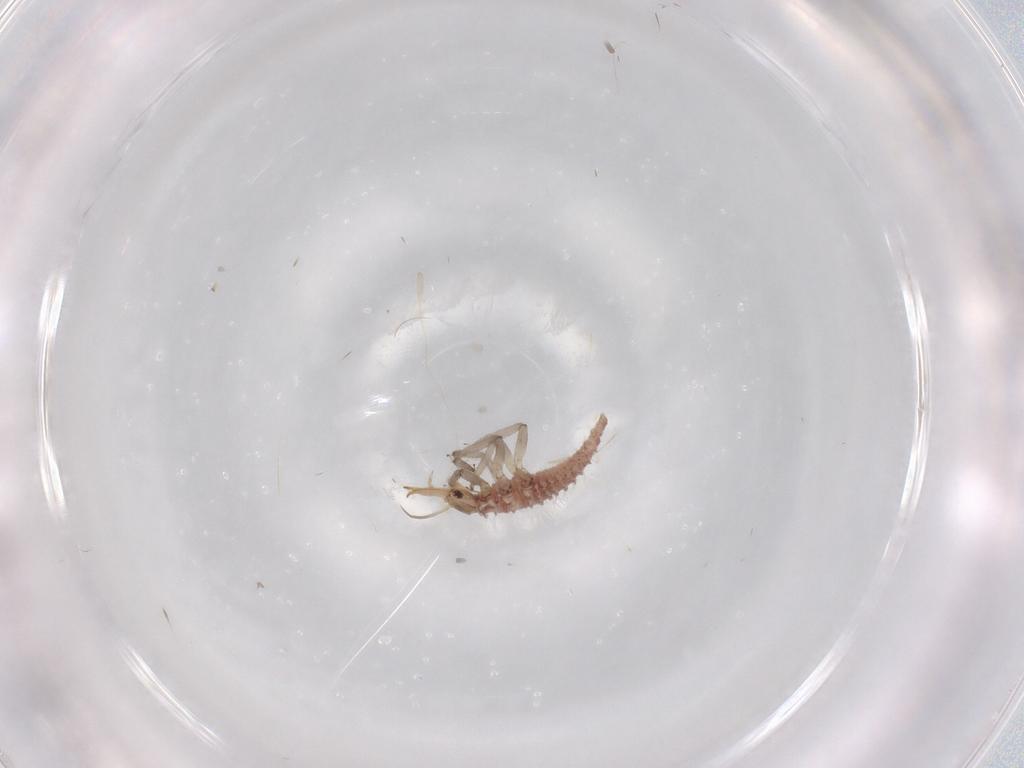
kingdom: Animalia
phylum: Arthropoda
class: Insecta
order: Neuroptera
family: Chrysopidae
